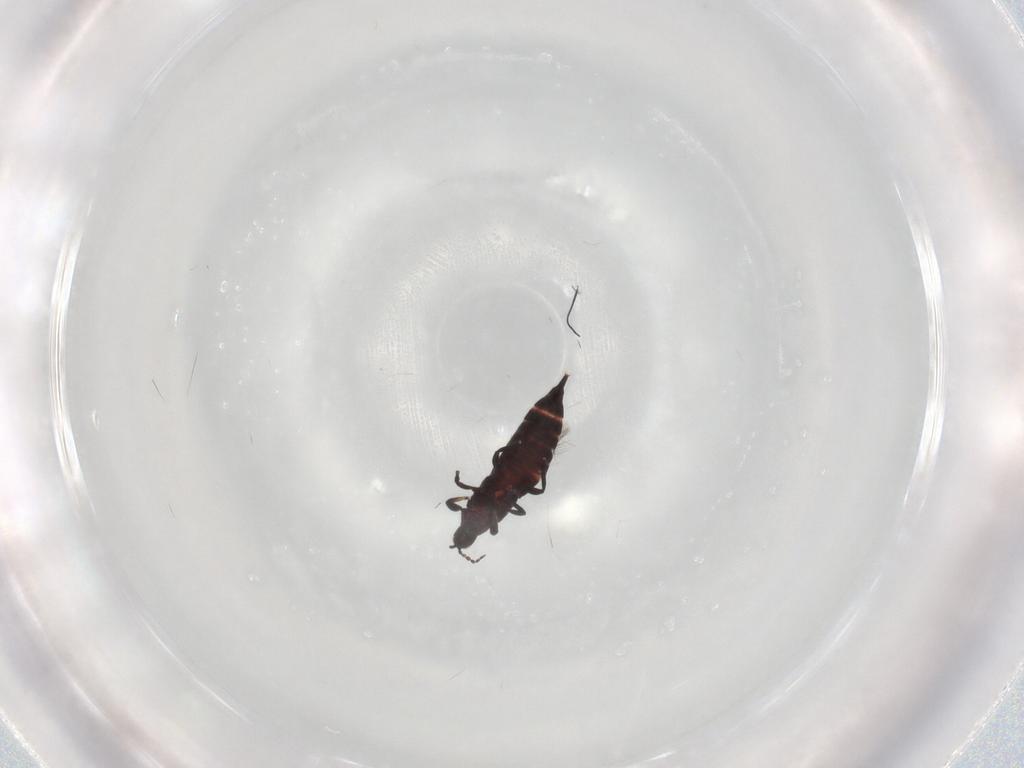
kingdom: Animalia
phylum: Arthropoda
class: Insecta
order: Thysanoptera
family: Phlaeothripidae
